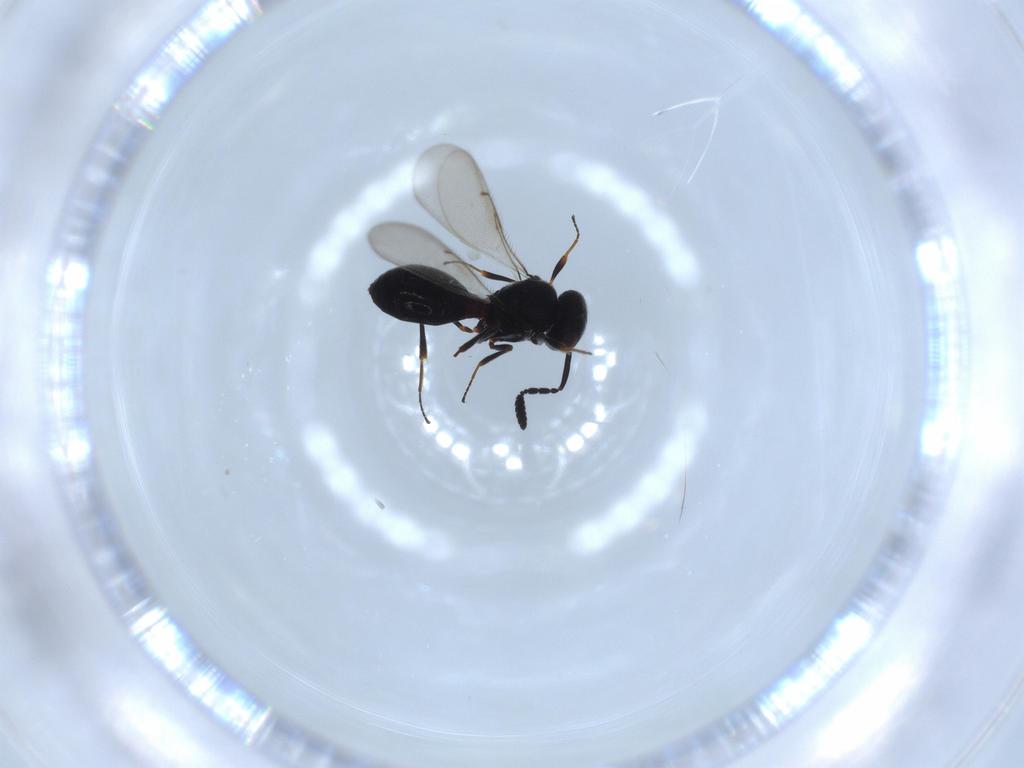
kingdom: Animalia
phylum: Arthropoda
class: Insecta
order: Hymenoptera
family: Scelionidae
